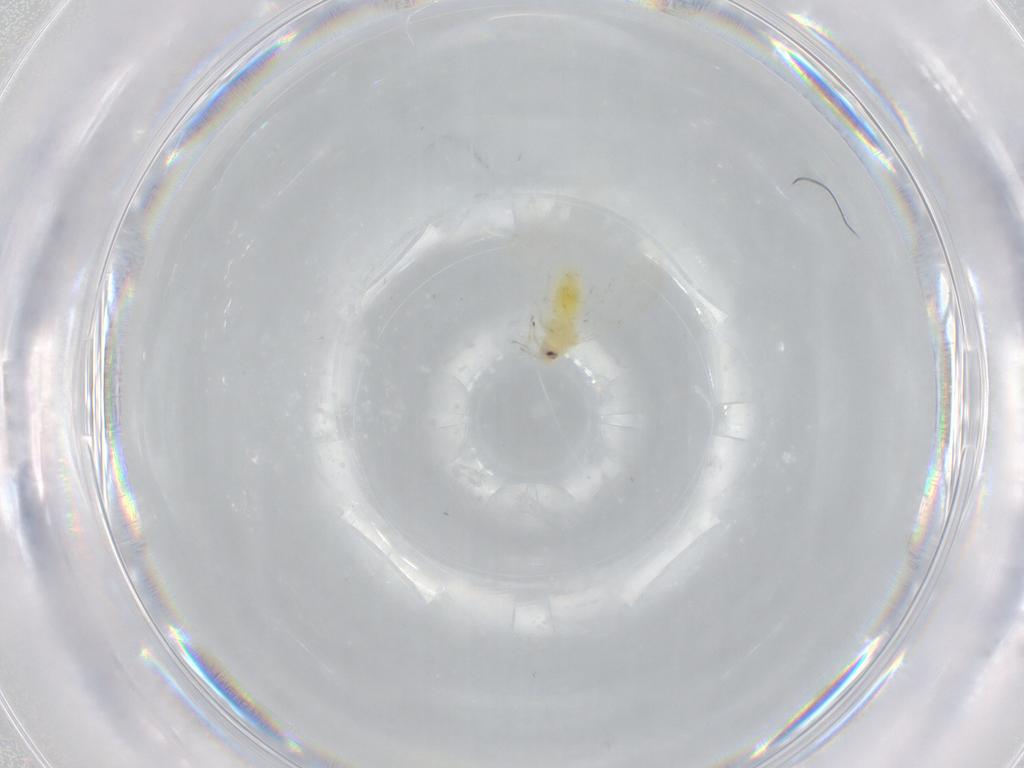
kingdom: Animalia
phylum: Arthropoda
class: Insecta
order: Hemiptera
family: Aleyrodidae
